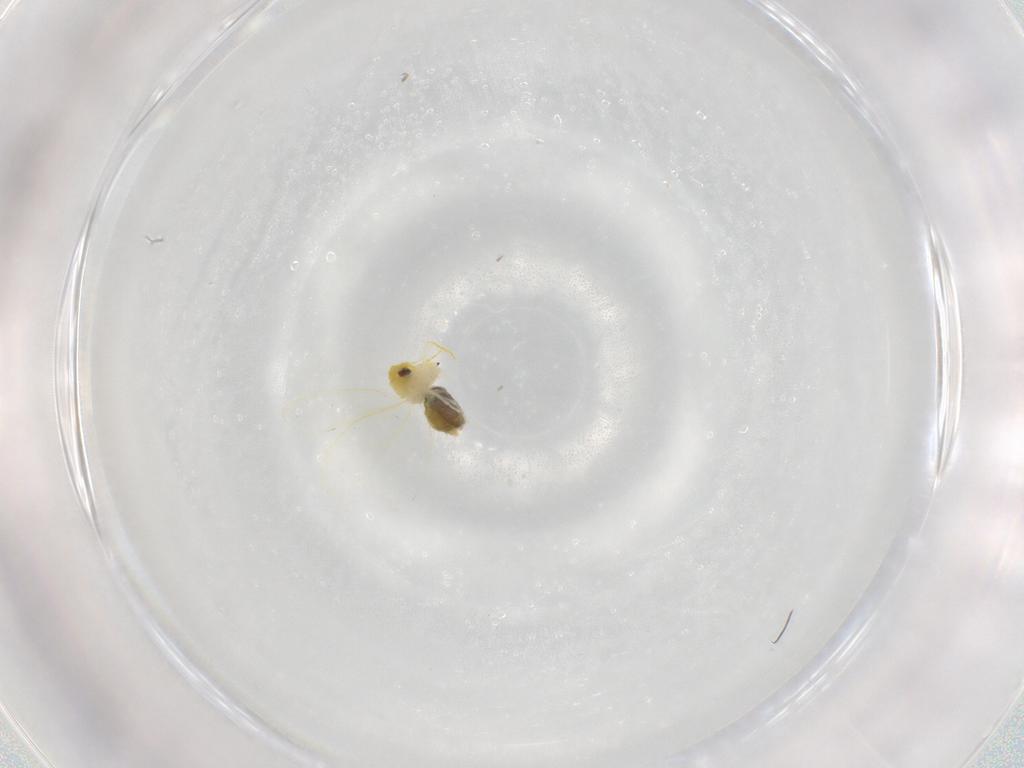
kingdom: Animalia
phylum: Arthropoda
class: Insecta
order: Hemiptera
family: Aleyrodidae
